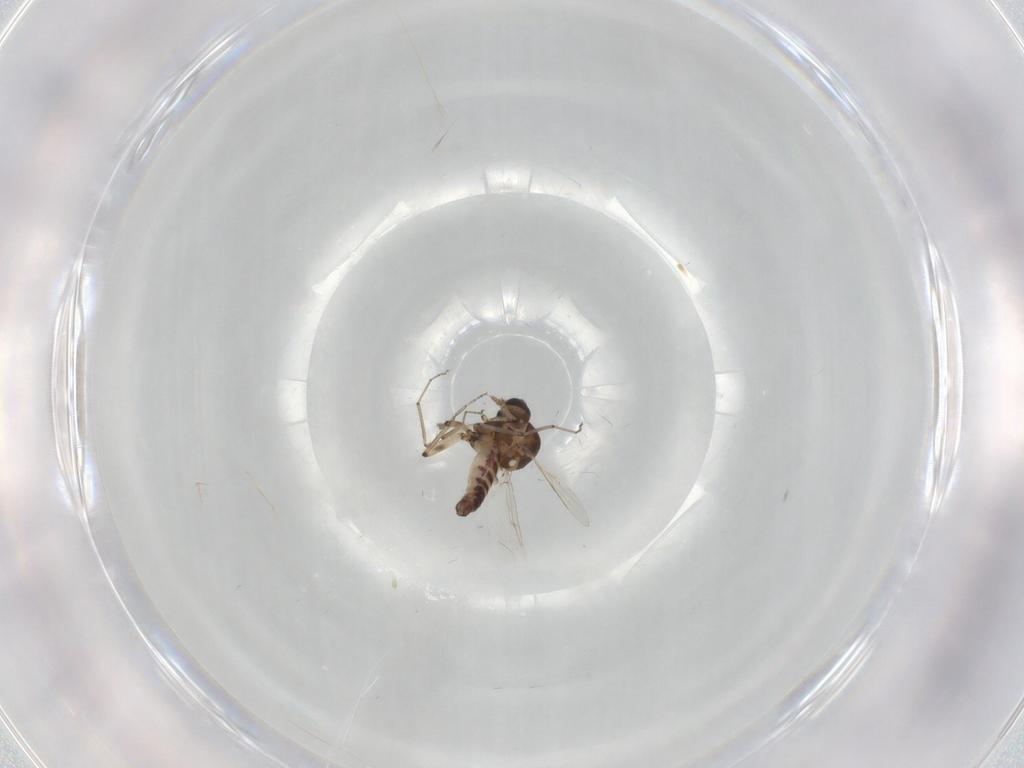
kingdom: Animalia
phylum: Arthropoda
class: Insecta
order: Diptera
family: Ceratopogonidae
